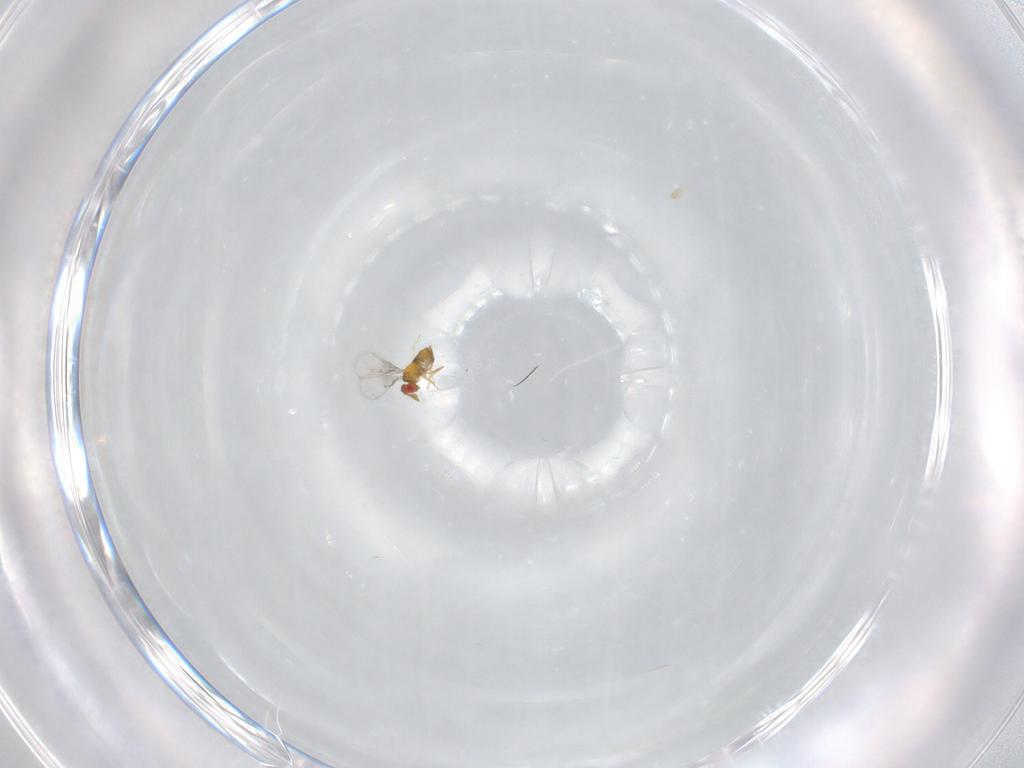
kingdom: Animalia
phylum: Arthropoda
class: Insecta
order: Hymenoptera
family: Trichogrammatidae
